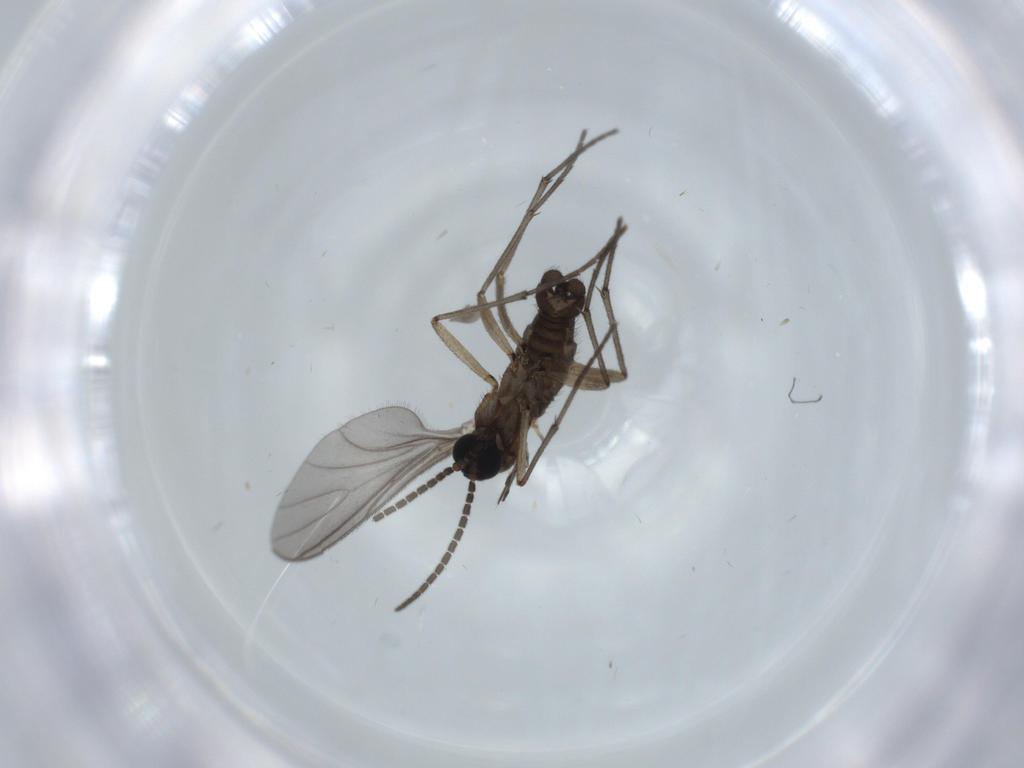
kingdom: Animalia
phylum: Arthropoda
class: Insecta
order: Diptera
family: Sciaridae
